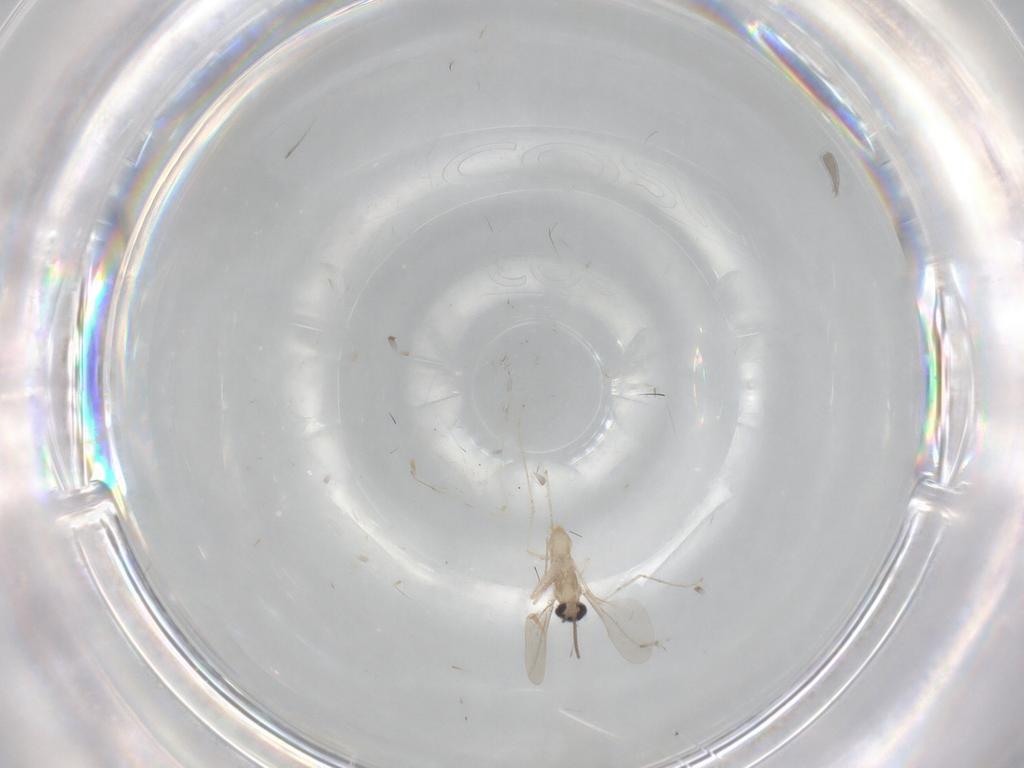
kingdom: Animalia
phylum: Arthropoda
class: Insecta
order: Diptera
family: Cecidomyiidae
